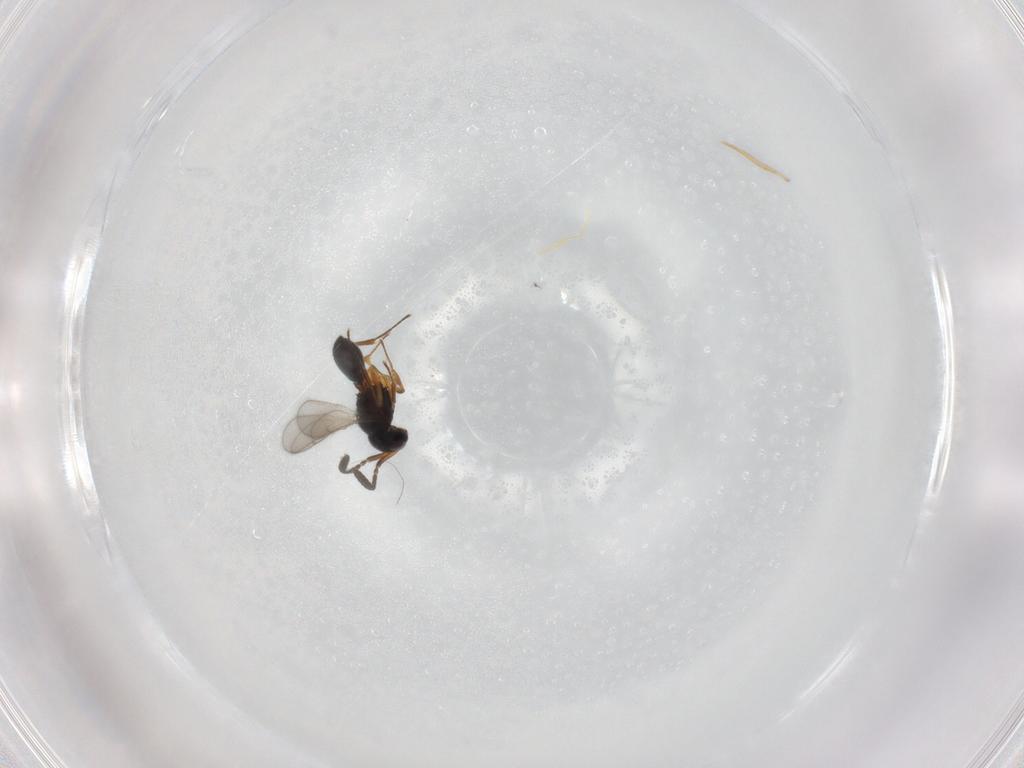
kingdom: Animalia
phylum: Arthropoda
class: Insecta
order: Hymenoptera
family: Scelionidae
